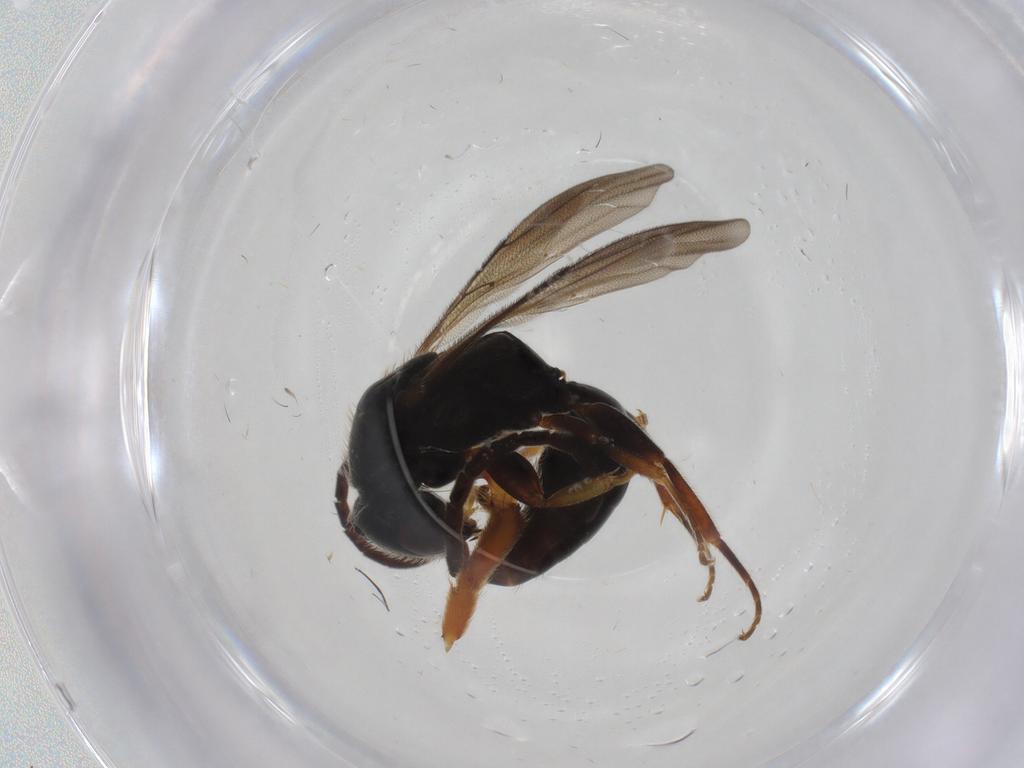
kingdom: Animalia
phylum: Arthropoda
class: Insecta
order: Hymenoptera
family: Bethylidae
